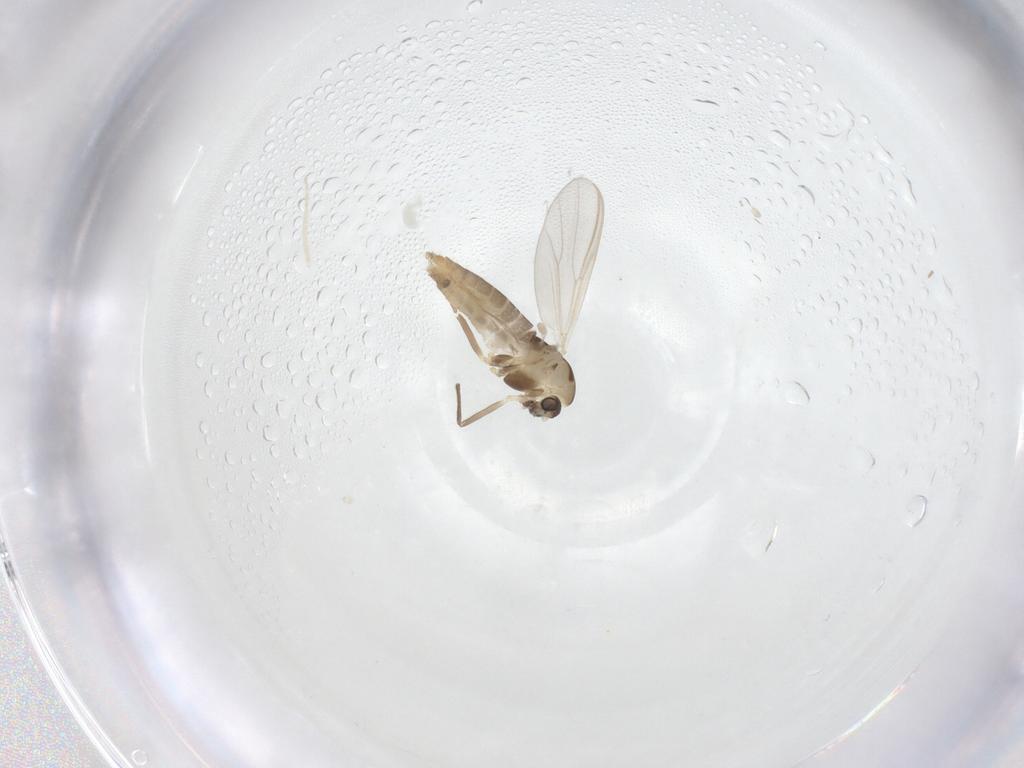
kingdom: Animalia
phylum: Arthropoda
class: Insecta
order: Diptera
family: Chironomidae
